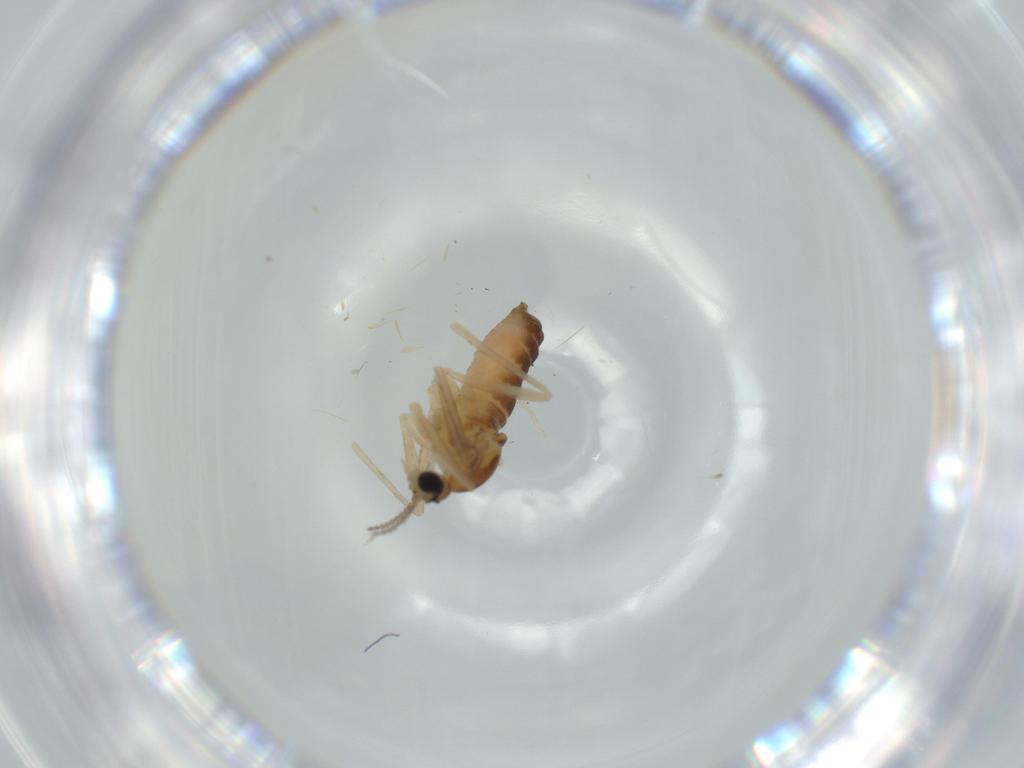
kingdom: Animalia
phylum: Arthropoda
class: Insecta
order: Diptera
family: Cecidomyiidae
